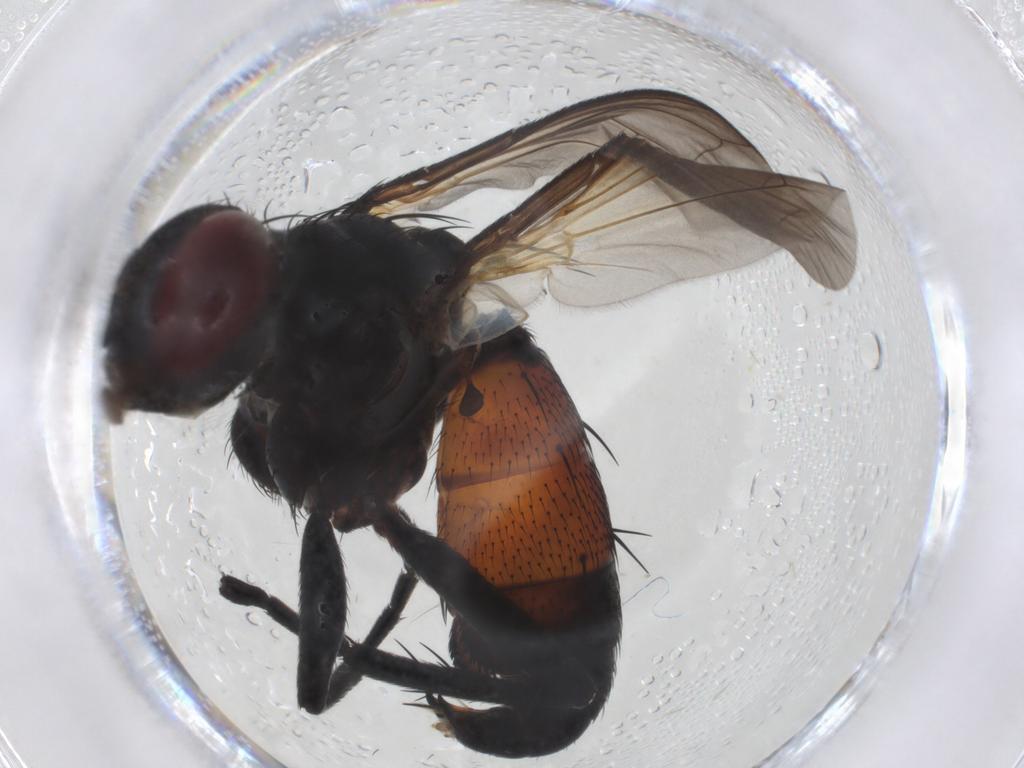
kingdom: Animalia
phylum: Arthropoda
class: Insecta
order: Diptera
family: Tachinidae
